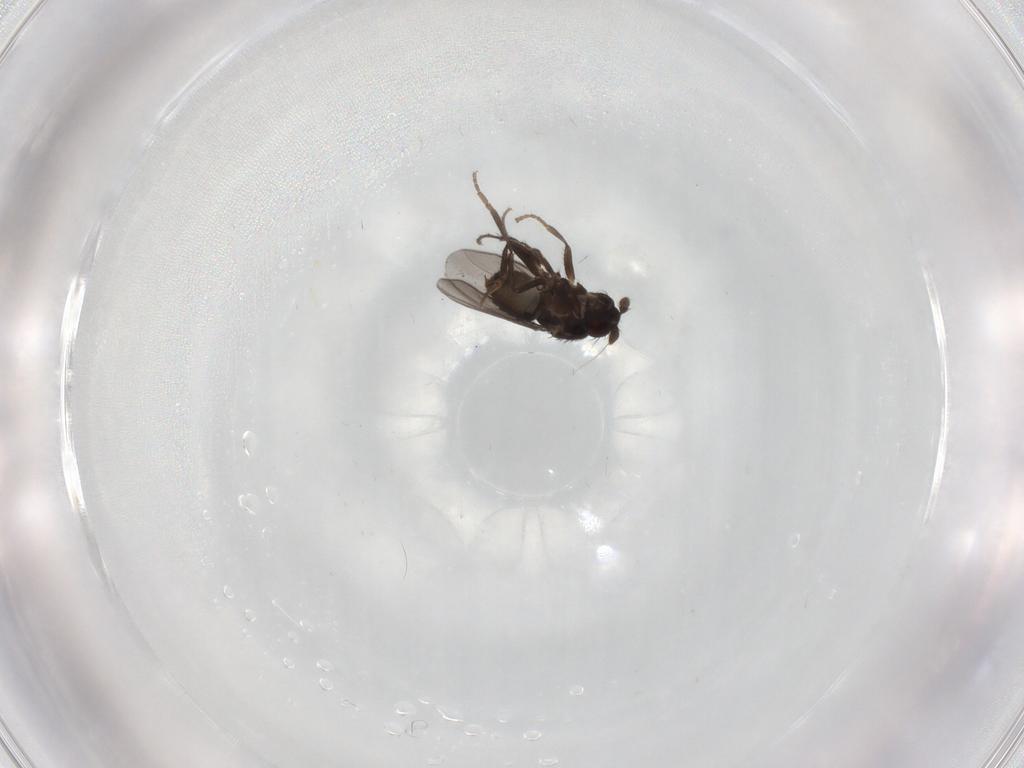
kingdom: Animalia
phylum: Arthropoda
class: Insecta
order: Diptera
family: Sphaeroceridae
